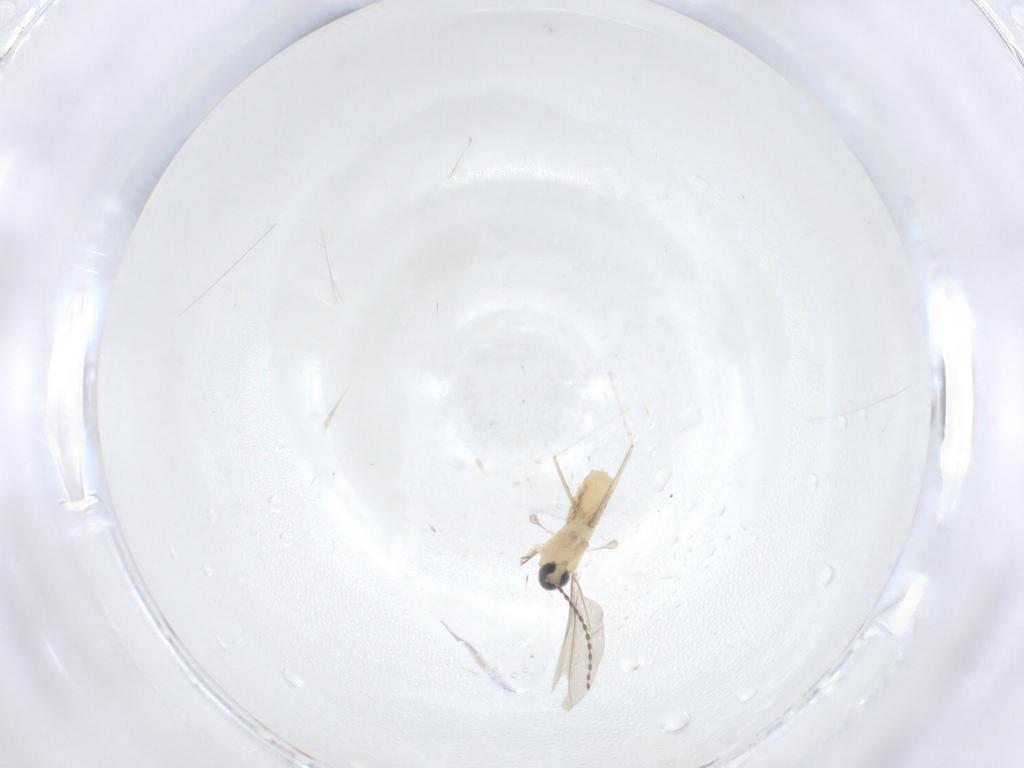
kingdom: Animalia
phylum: Arthropoda
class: Insecta
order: Diptera
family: Cecidomyiidae
